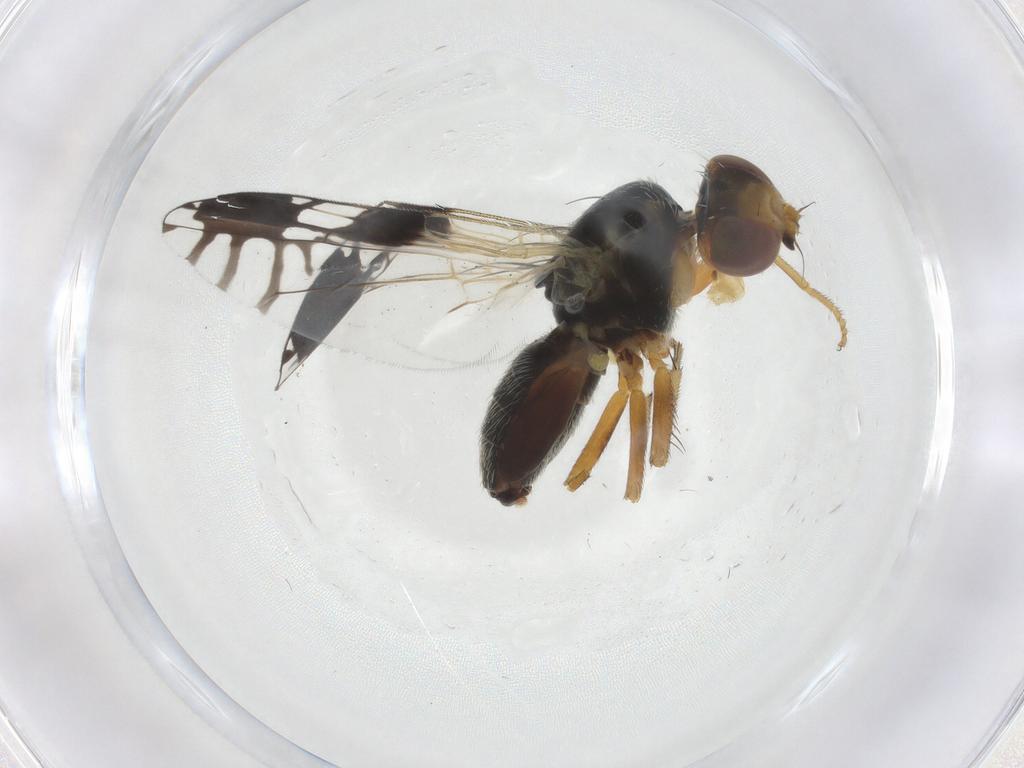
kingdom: Animalia
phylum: Arthropoda
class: Insecta
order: Diptera
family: Tephritidae
